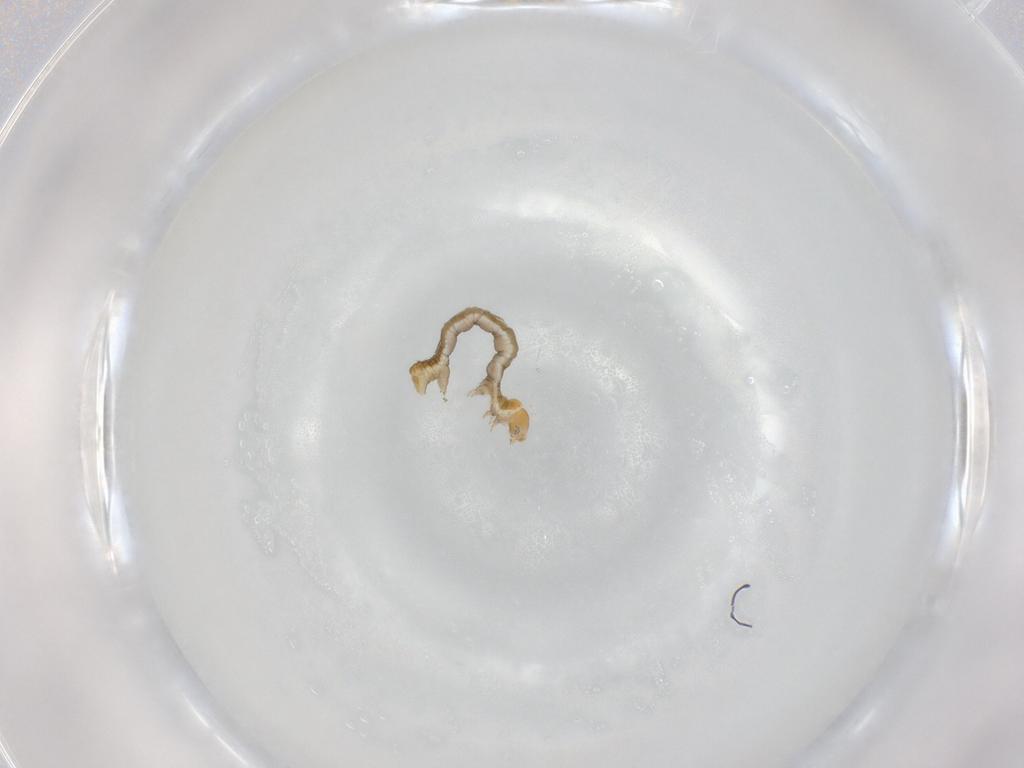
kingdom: Animalia
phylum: Arthropoda
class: Insecta
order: Lepidoptera
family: Geometridae
